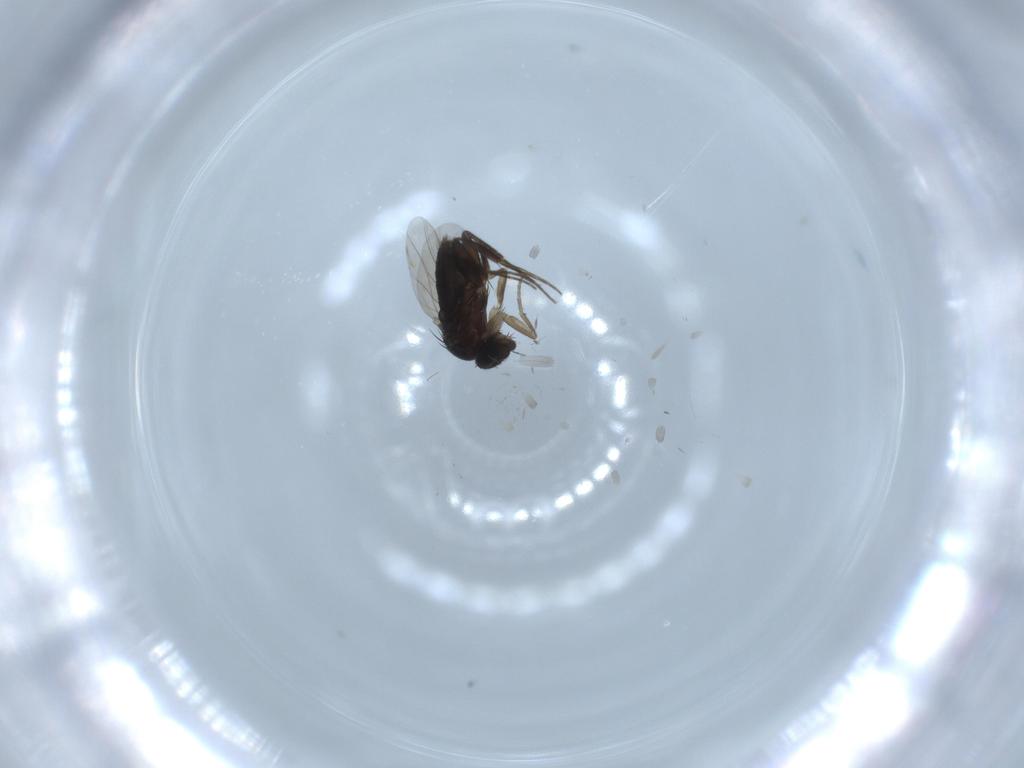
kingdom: Animalia
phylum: Arthropoda
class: Insecta
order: Diptera
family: Phoridae
